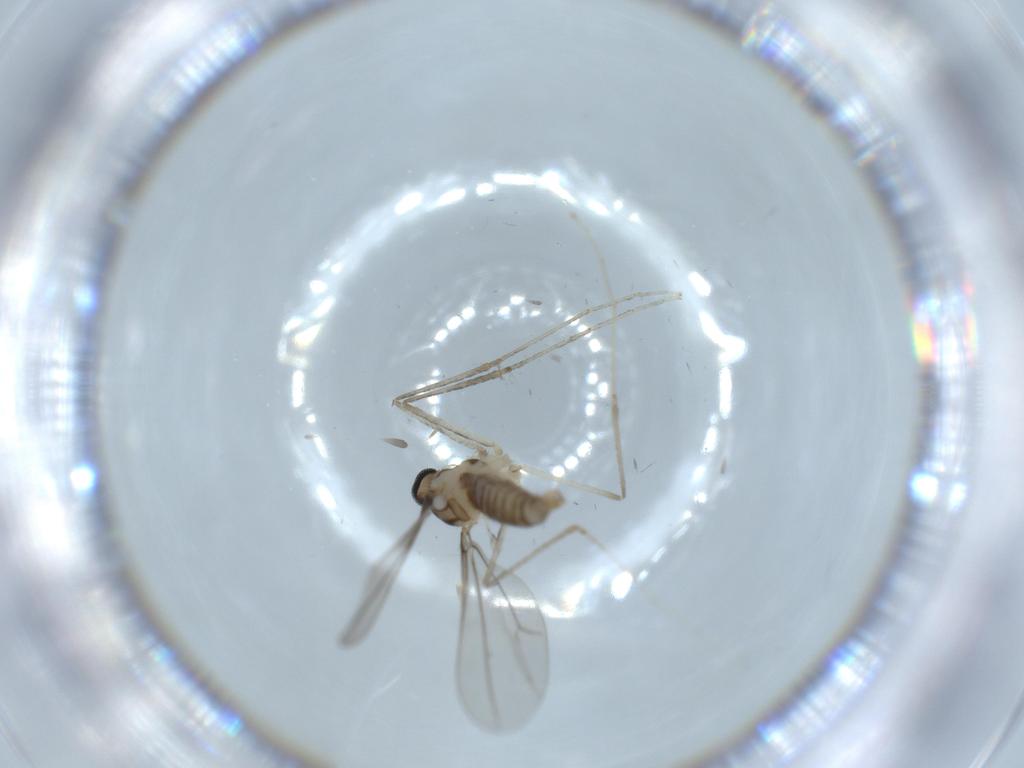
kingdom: Animalia
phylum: Arthropoda
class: Insecta
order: Diptera
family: Cecidomyiidae
